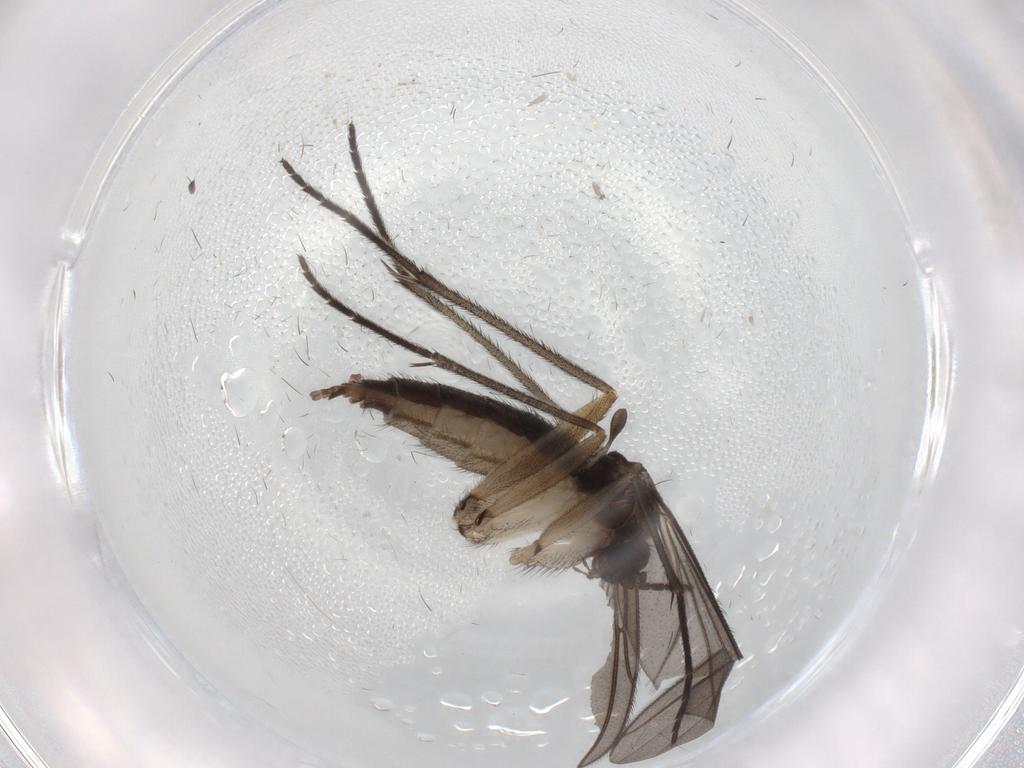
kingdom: Animalia
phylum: Arthropoda
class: Insecta
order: Diptera
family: Sciaridae
